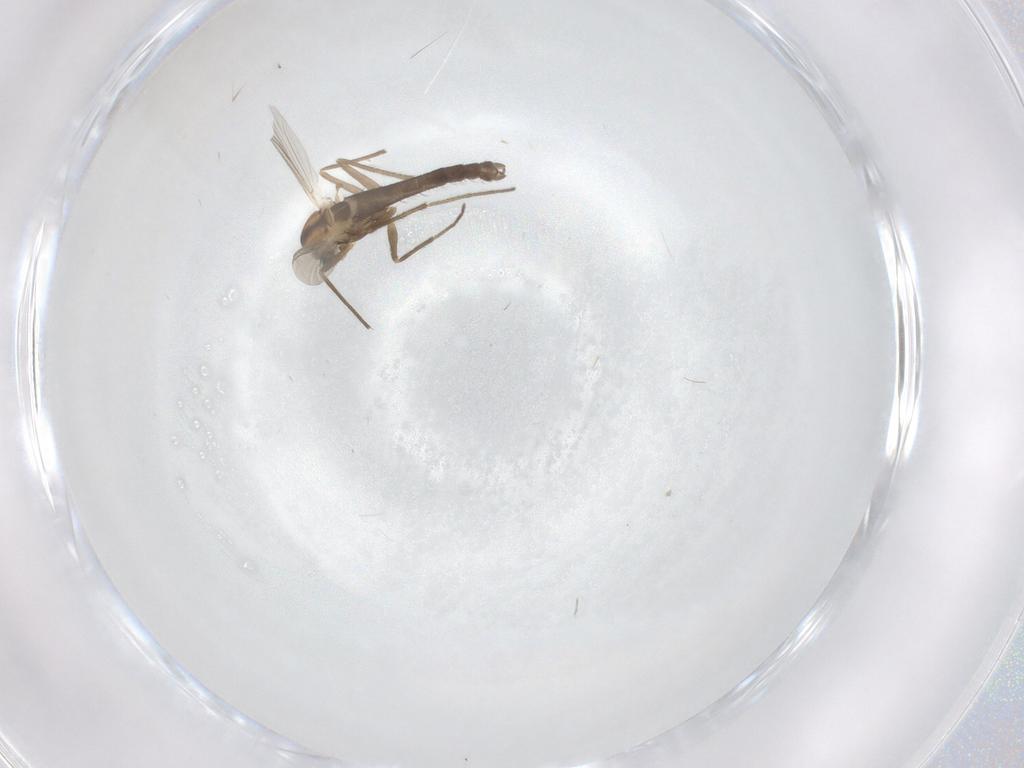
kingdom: Animalia
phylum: Arthropoda
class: Insecta
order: Diptera
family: Chironomidae
